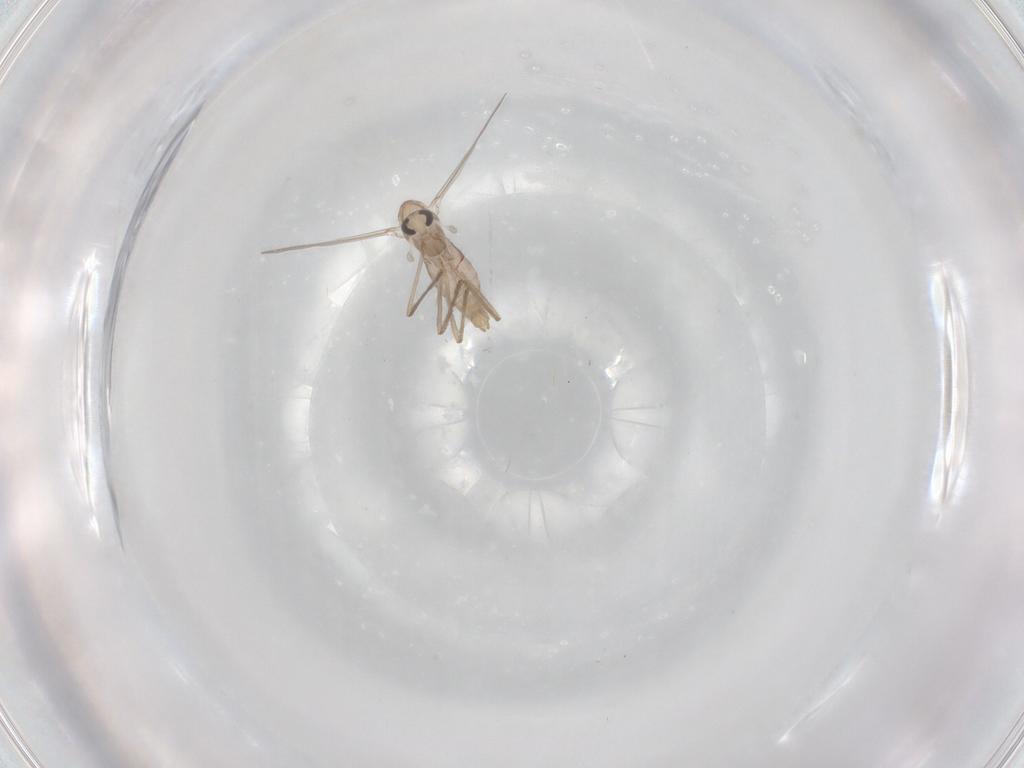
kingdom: Animalia
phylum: Arthropoda
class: Insecta
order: Diptera
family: Chironomidae
